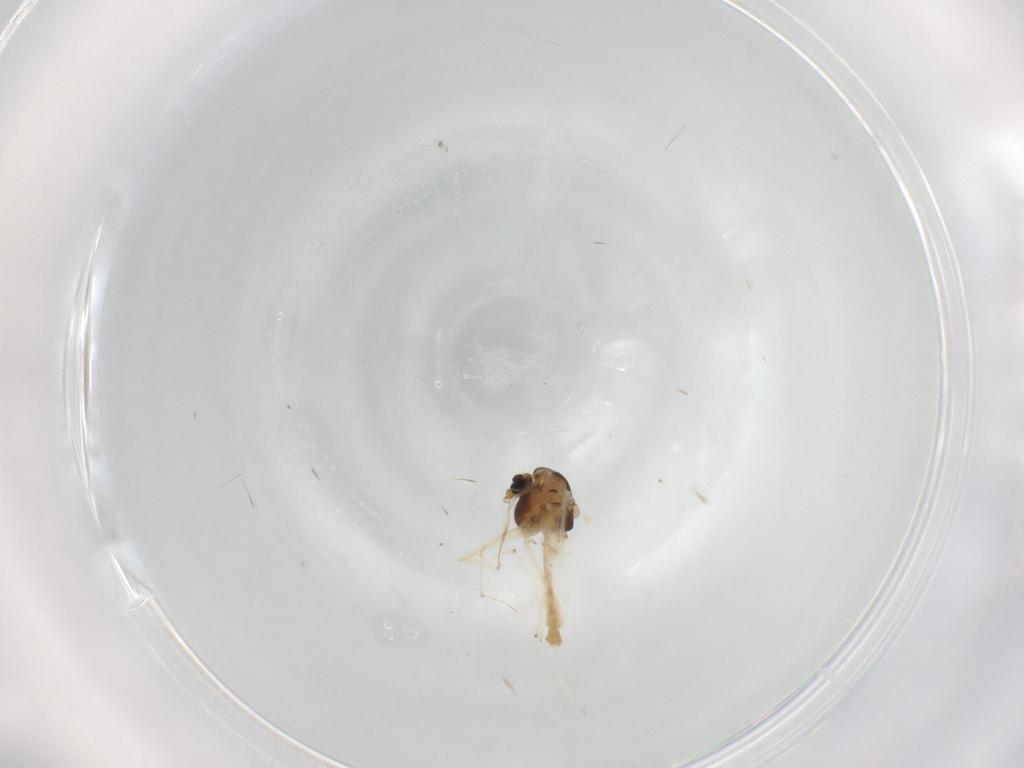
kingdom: Animalia
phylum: Arthropoda
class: Insecta
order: Diptera
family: Chironomidae
